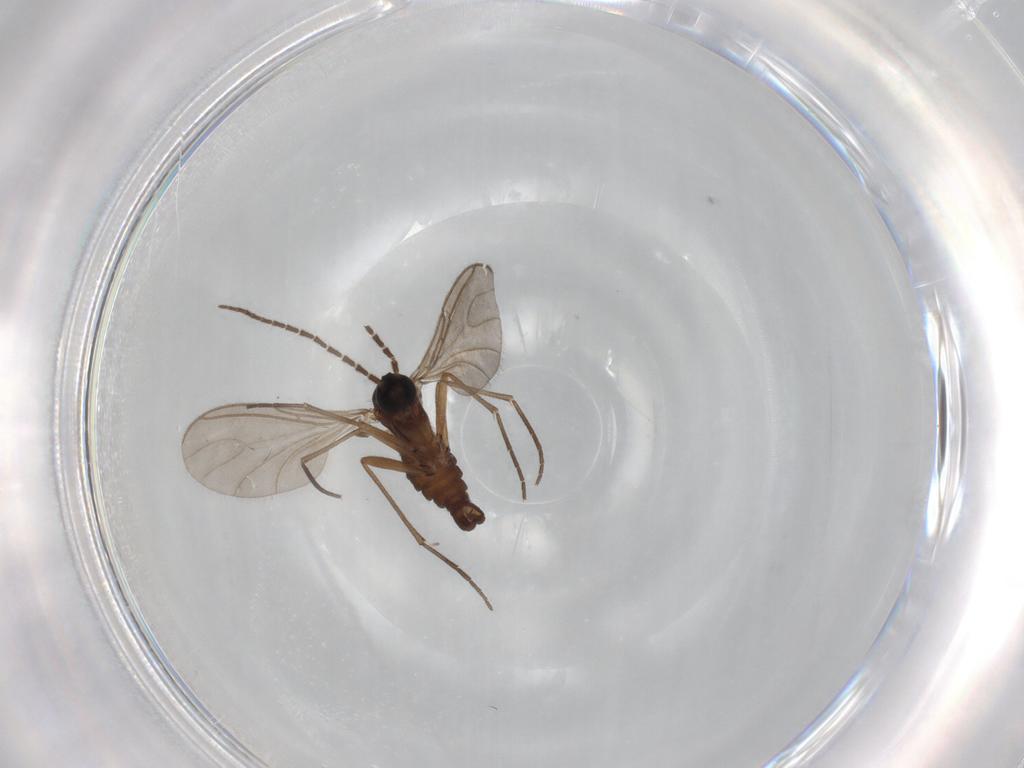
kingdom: Animalia
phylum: Arthropoda
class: Insecta
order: Diptera
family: Sciaridae
